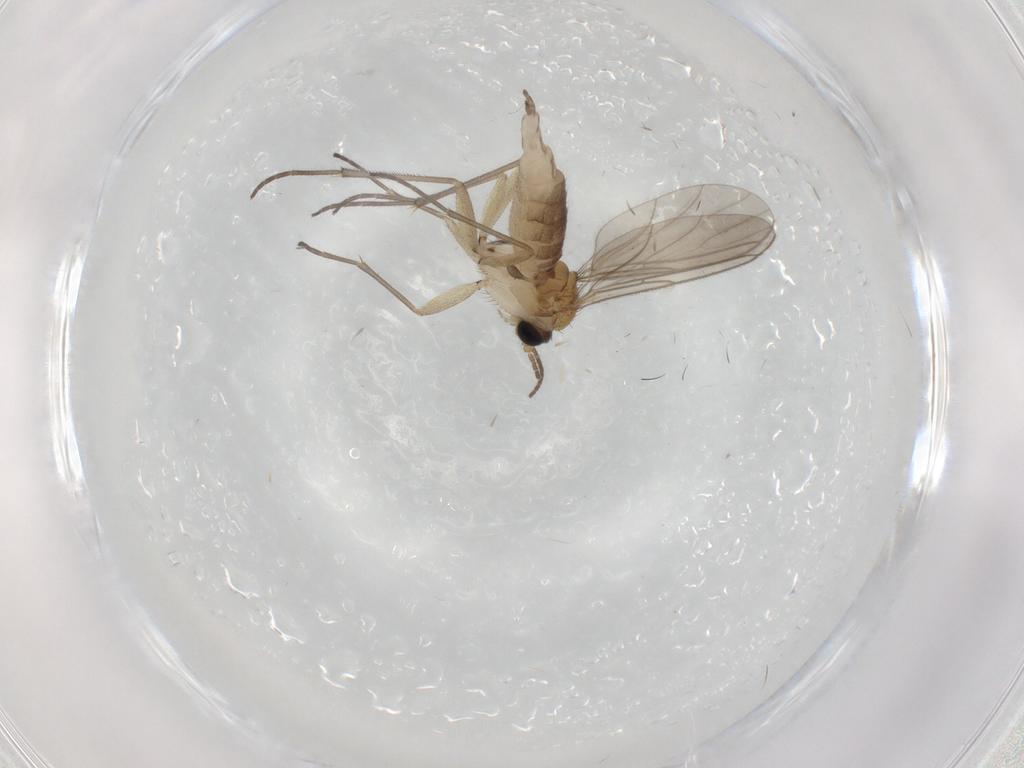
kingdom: Animalia
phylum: Arthropoda
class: Insecta
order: Diptera
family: Keroplatidae
